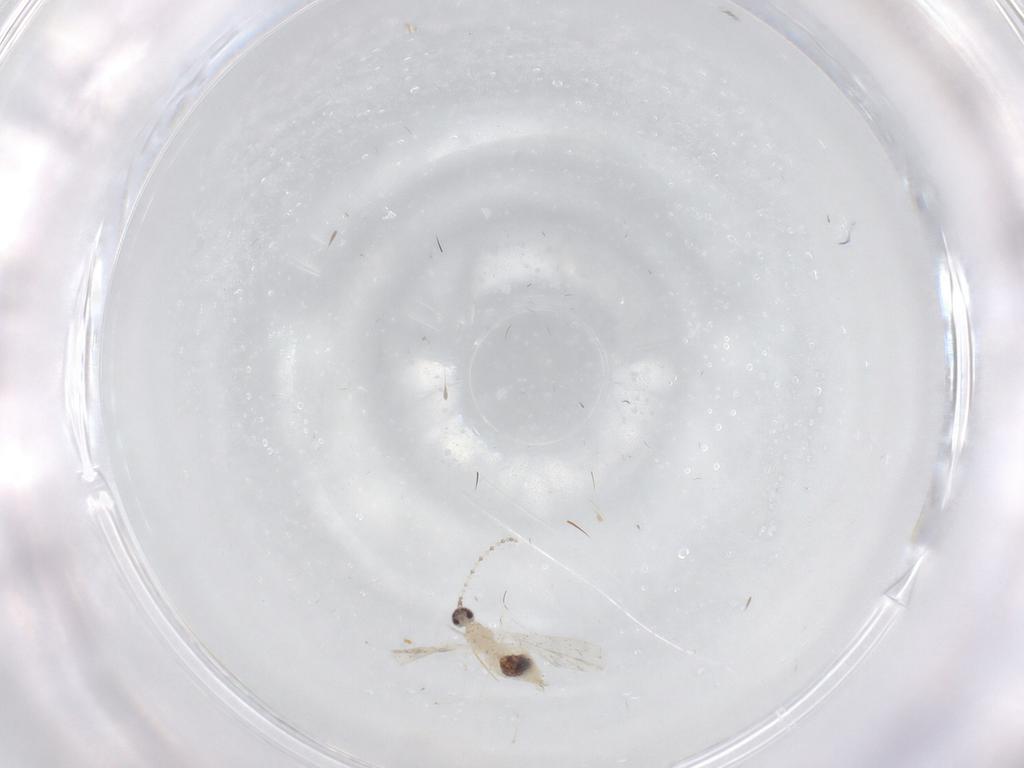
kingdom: Animalia
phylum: Arthropoda
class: Insecta
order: Diptera
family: Cecidomyiidae
